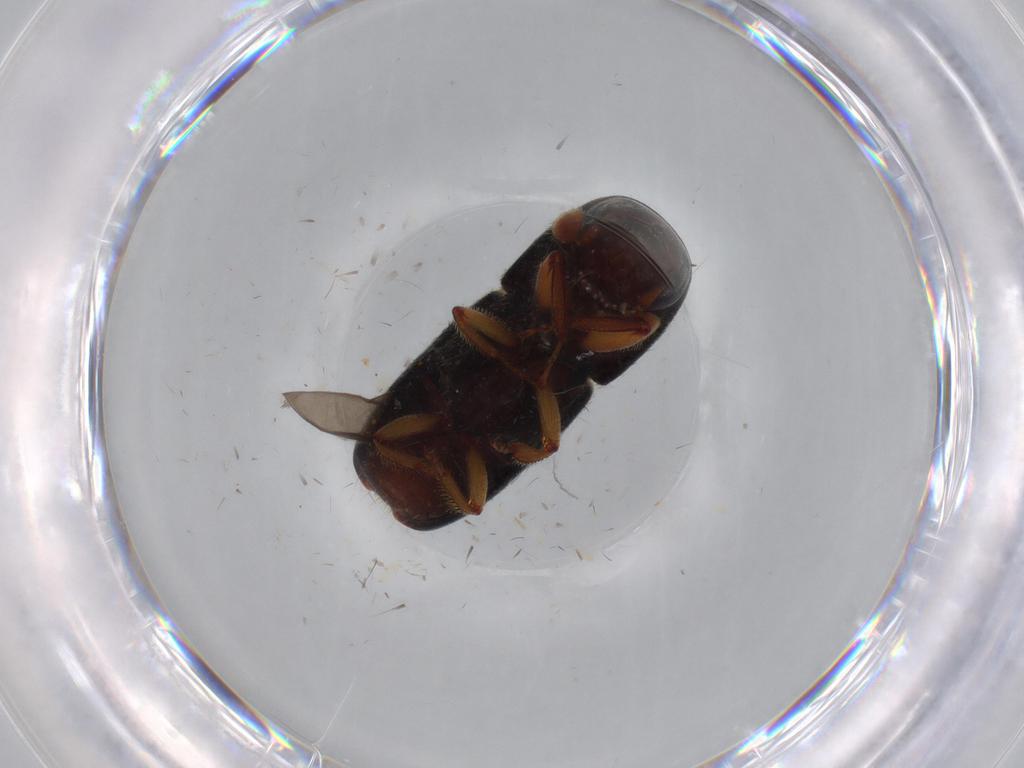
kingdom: Animalia
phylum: Arthropoda
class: Insecta
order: Coleoptera
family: Curculionidae
